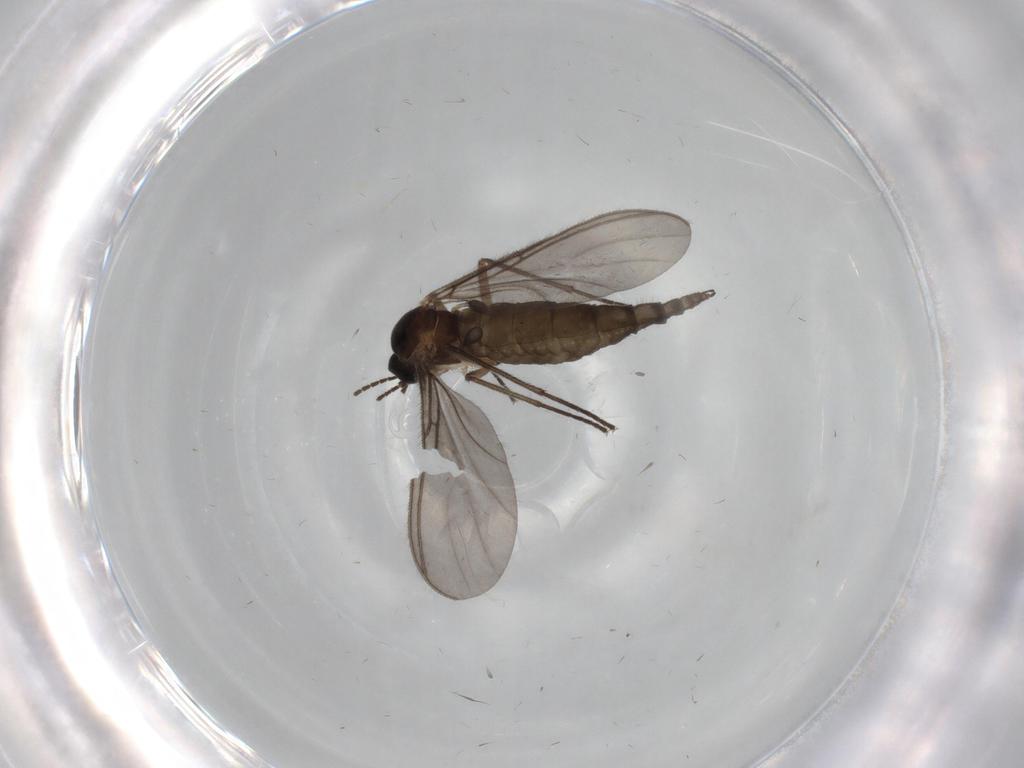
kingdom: Animalia
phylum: Arthropoda
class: Insecta
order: Diptera
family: Sciaridae
